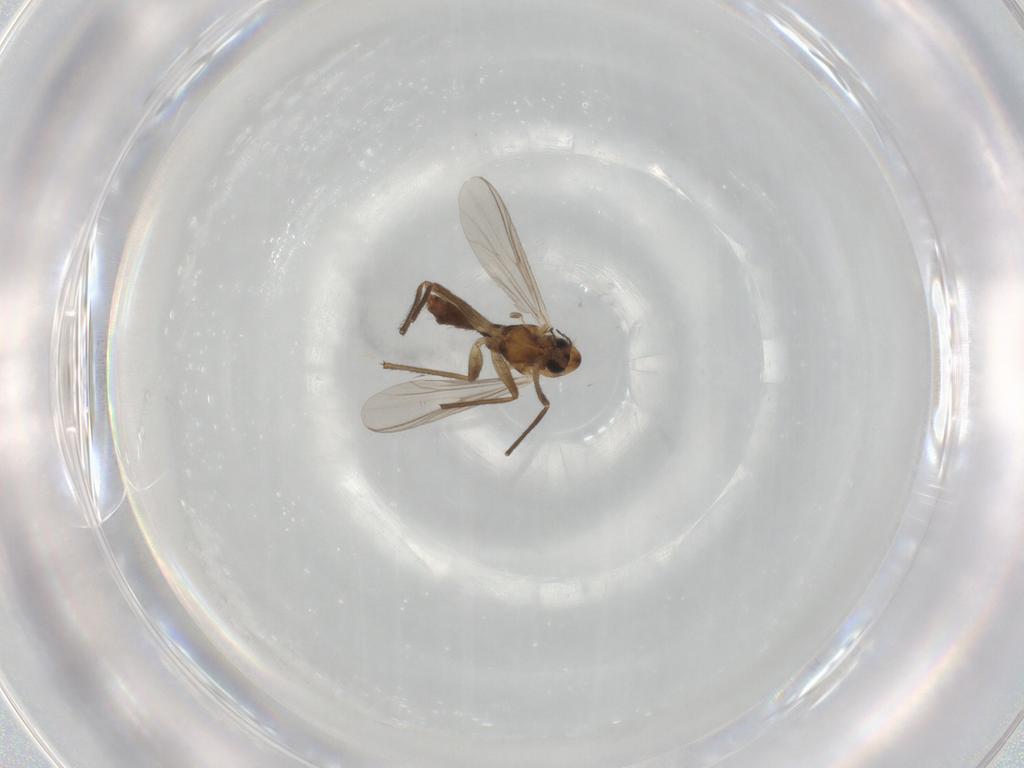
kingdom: Animalia
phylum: Arthropoda
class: Insecta
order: Diptera
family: Chironomidae
